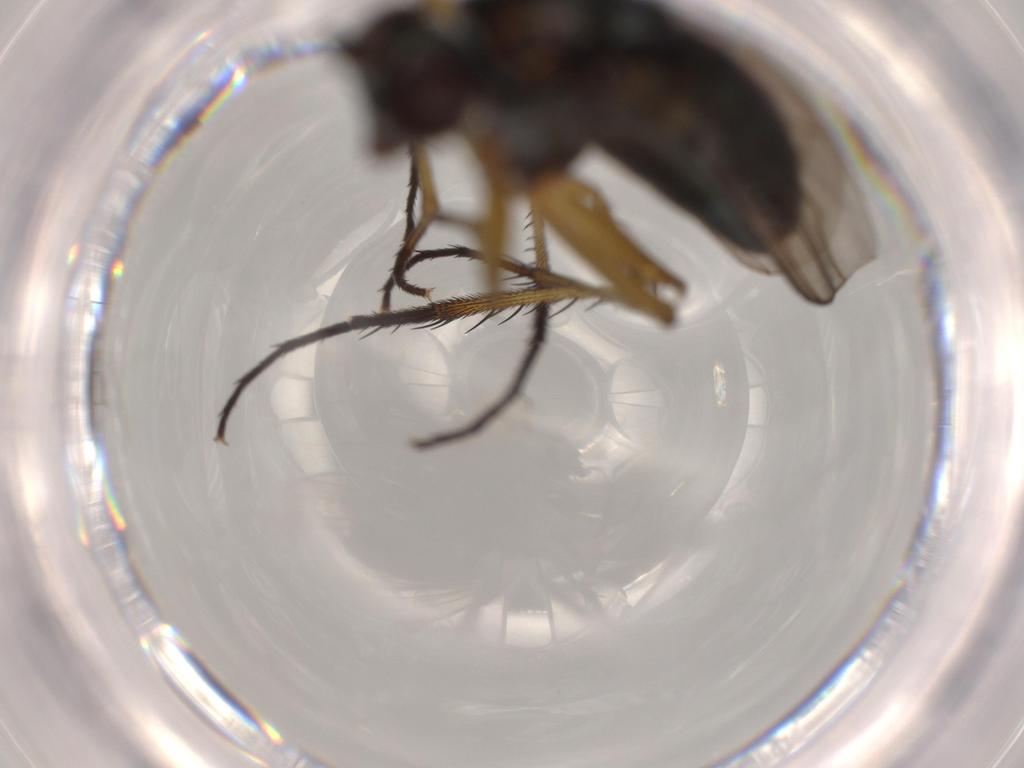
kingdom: Animalia
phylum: Arthropoda
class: Insecta
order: Diptera
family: Dolichopodidae
